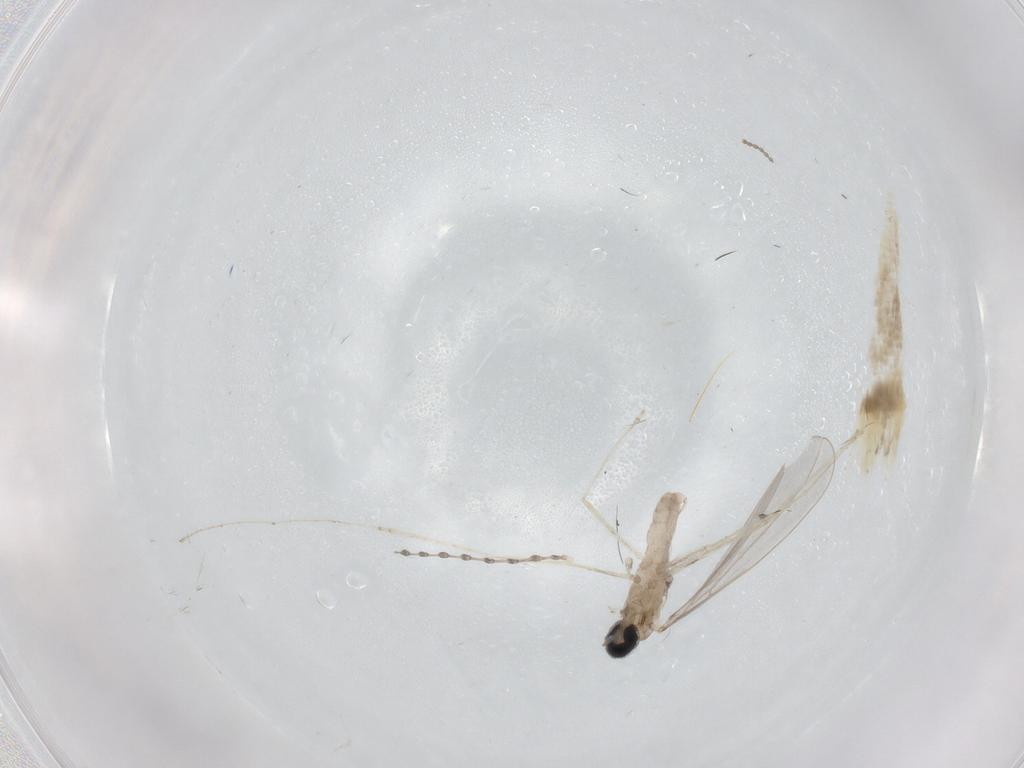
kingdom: Animalia
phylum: Arthropoda
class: Insecta
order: Diptera
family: Cecidomyiidae
